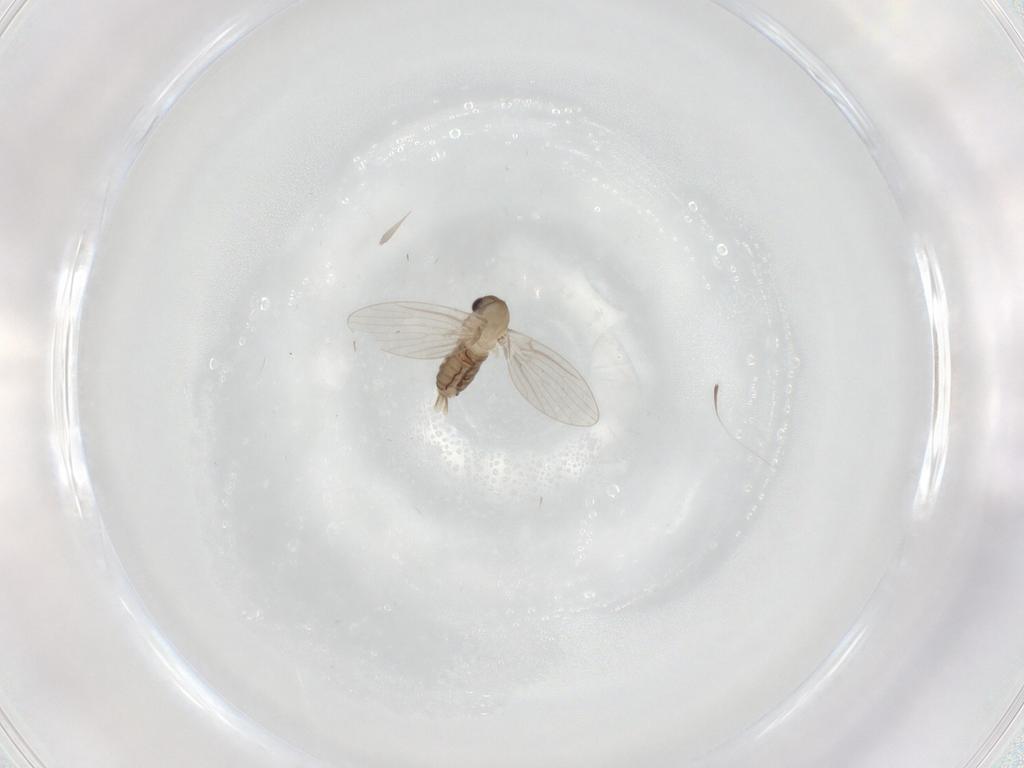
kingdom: Animalia
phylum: Arthropoda
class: Insecta
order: Diptera
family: Psychodidae
